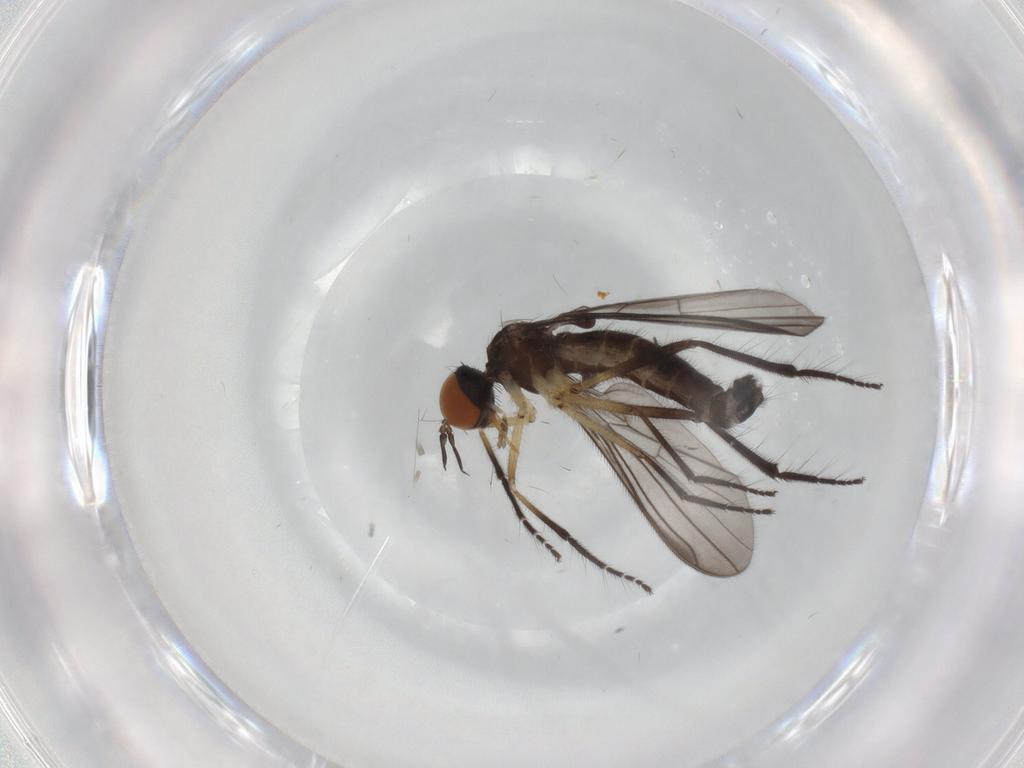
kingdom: Animalia
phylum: Arthropoda
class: Insecta
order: Diptera
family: Empididae
